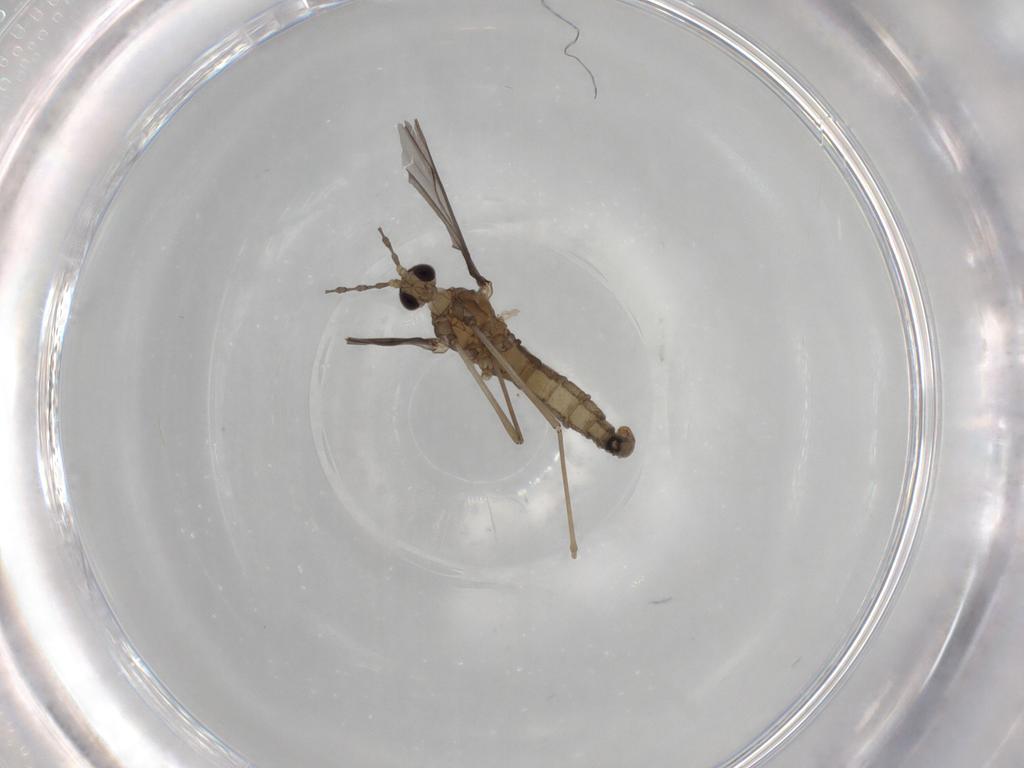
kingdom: Animalia
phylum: Arthropoda
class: Insecta
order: Diptera
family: Cecidomyiidae
